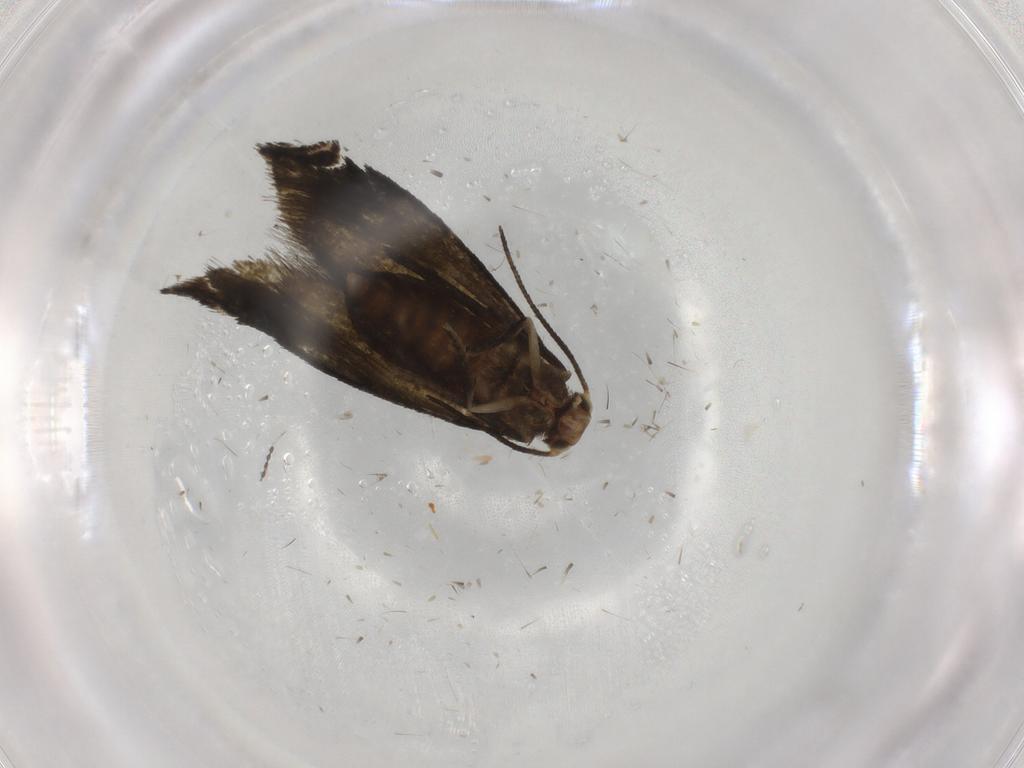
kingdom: Animalia
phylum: Arthropoda
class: Insecta
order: Lepidoptera
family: Tineidae
